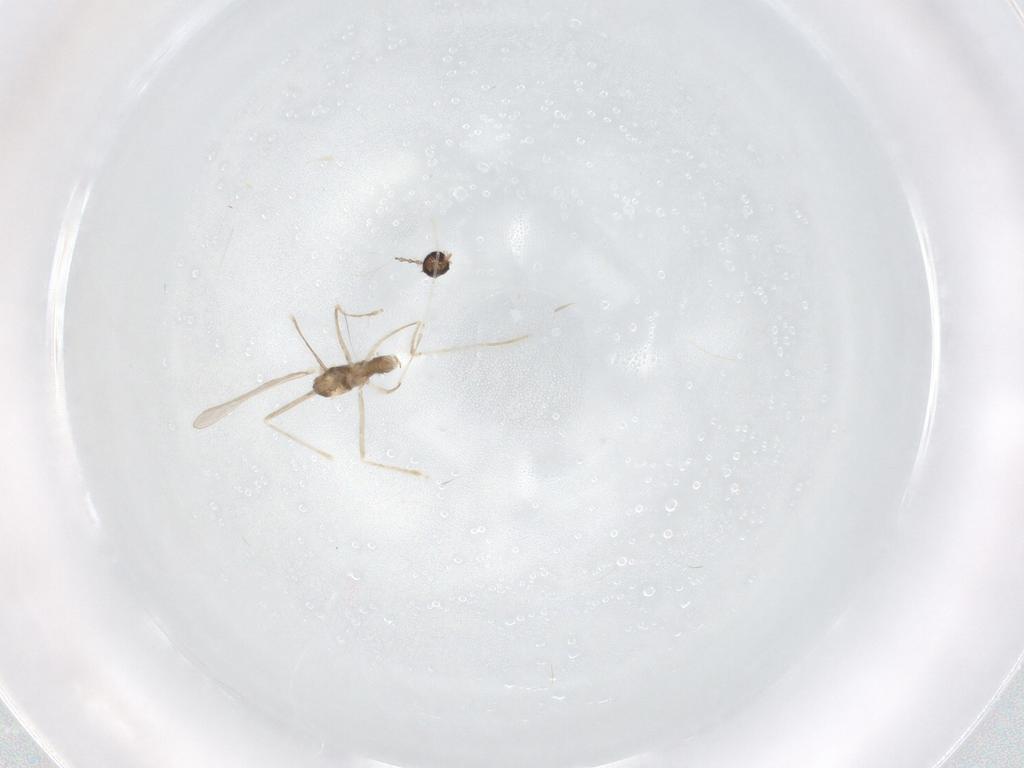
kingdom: Animalia
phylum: Arthropoda
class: Insecta
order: Diptera
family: Cecidomyiidae
